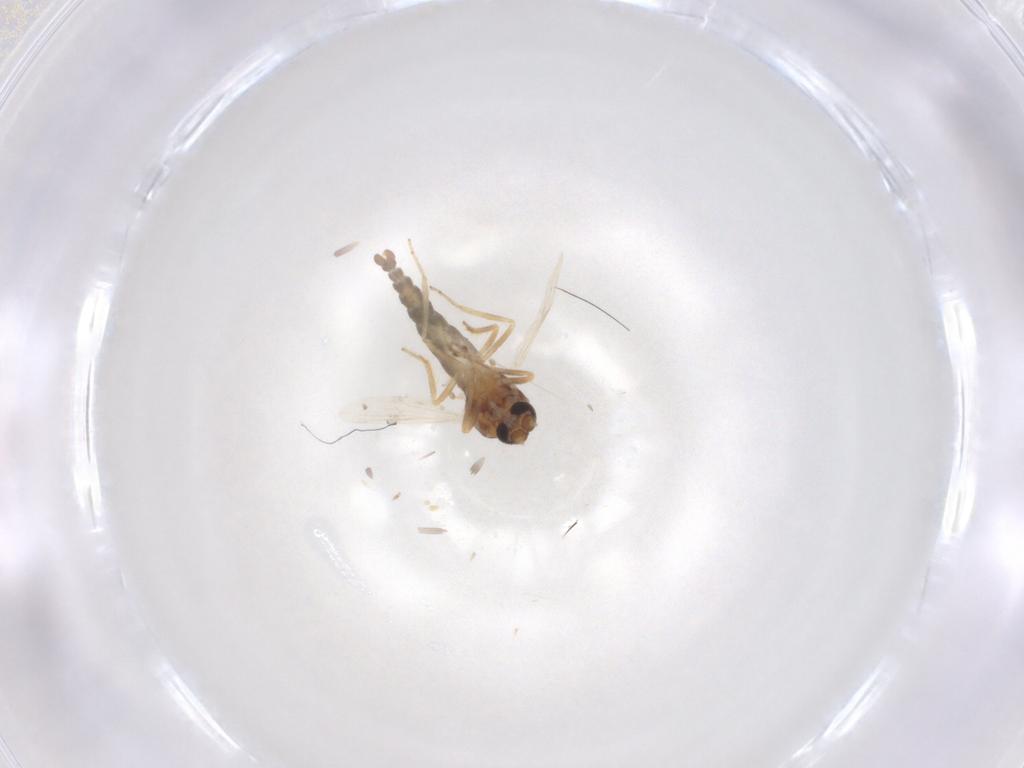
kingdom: Animalia
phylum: Arthropoda
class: Insecta
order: Diptera
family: Ceratopogonidae
